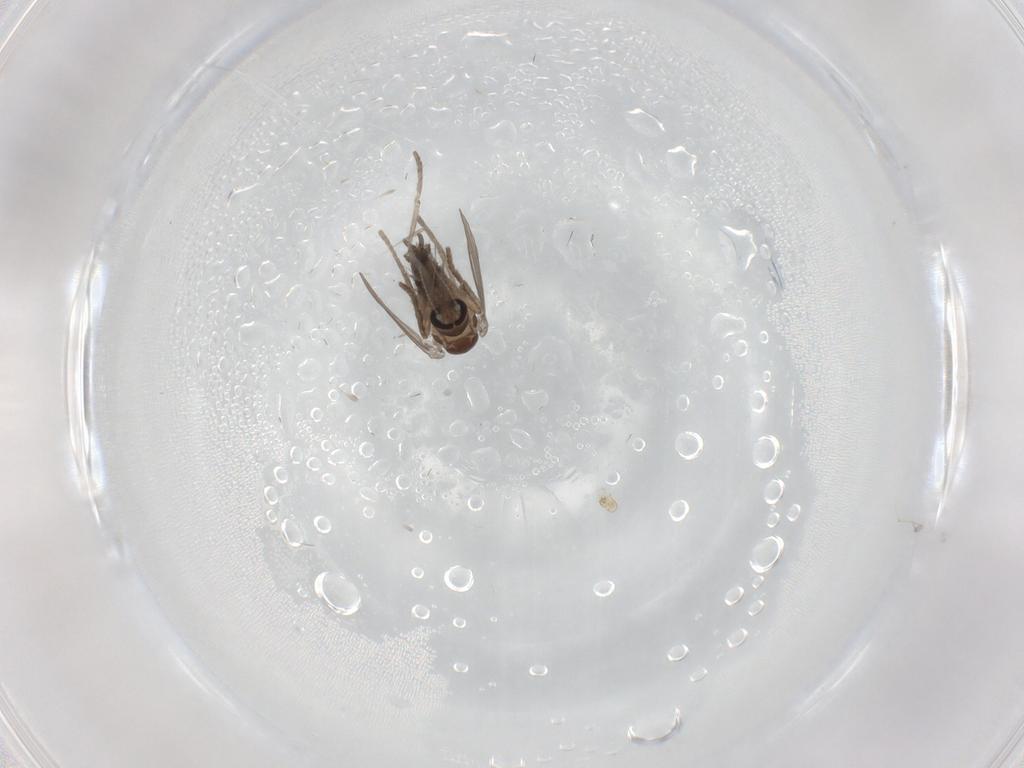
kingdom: Animalia
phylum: Arthropoda
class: Insecta
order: Diptera
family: Psychodidae
